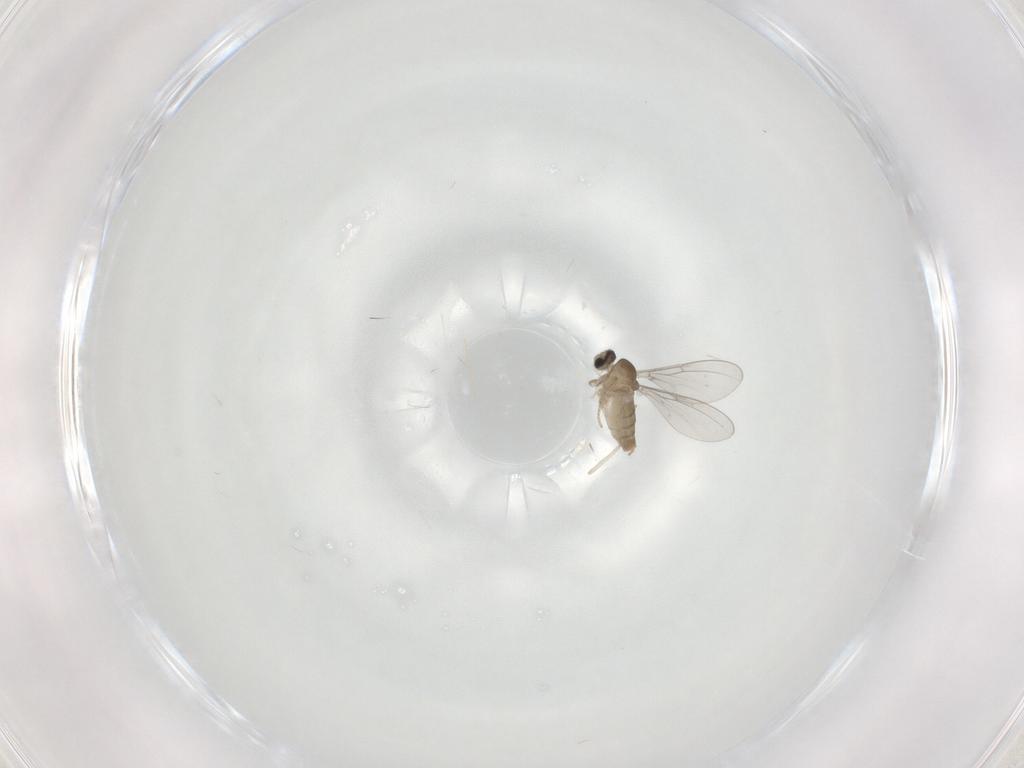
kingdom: Animalia
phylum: Arthropoda
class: Insecta
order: Diptera
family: Cecidomyiidae
